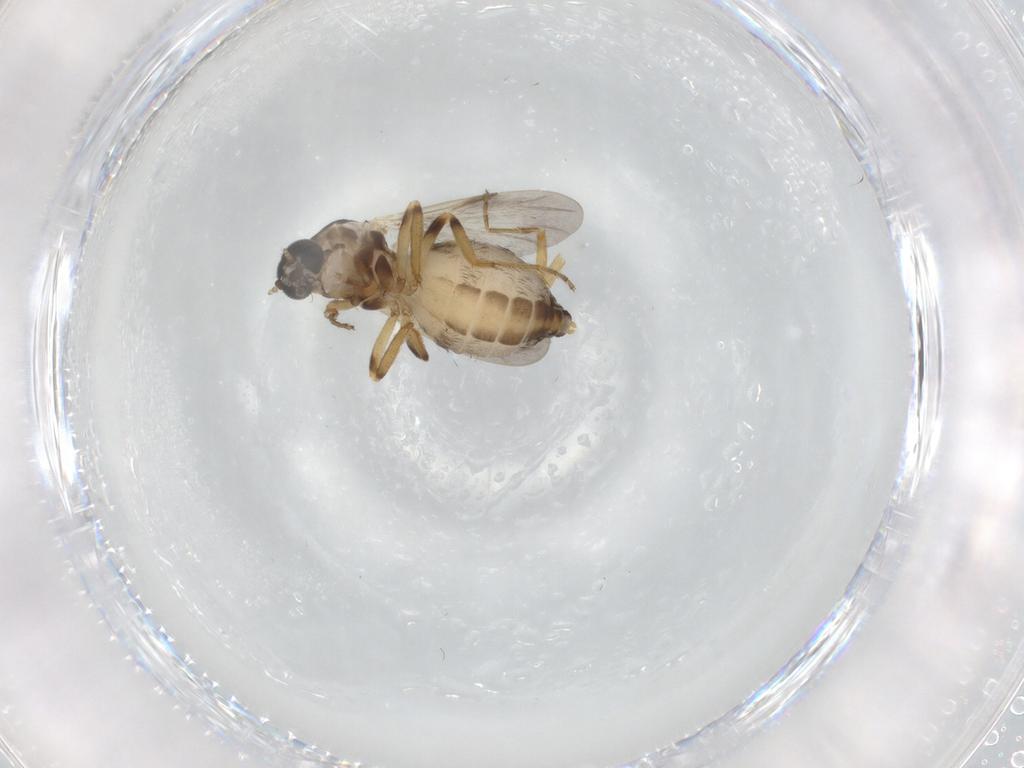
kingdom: Animalia
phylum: Arthropoda
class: Insecta
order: Diptera
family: Ceratopogonidae
